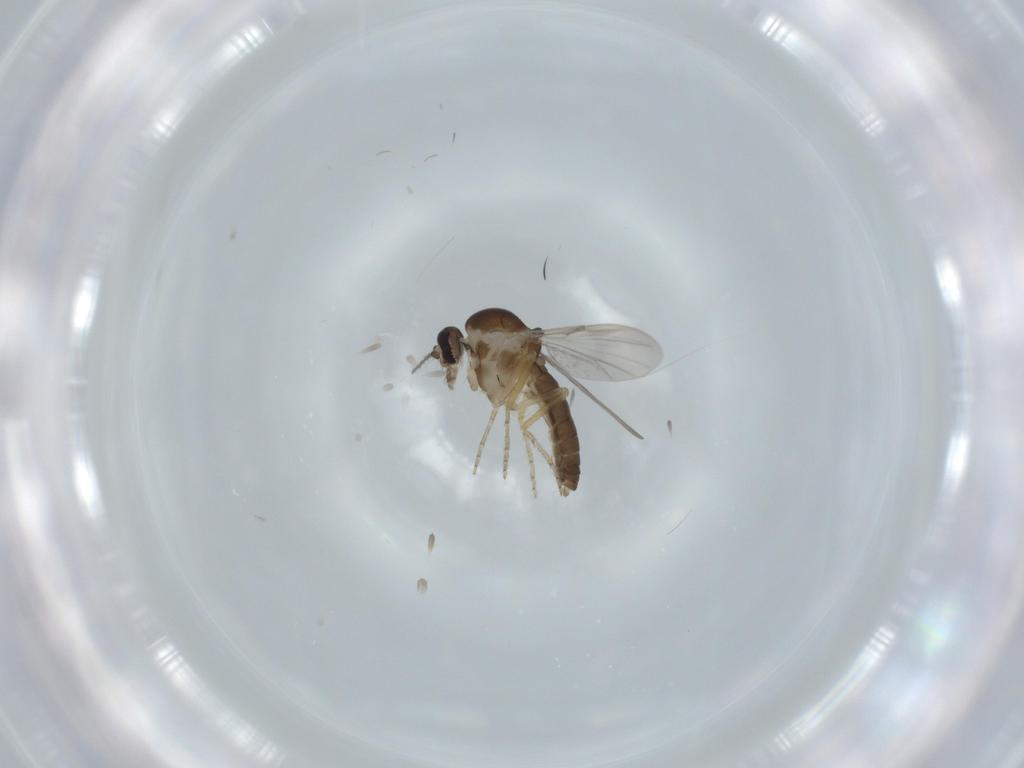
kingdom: Animalia
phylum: Arthropoda
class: Insecta
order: Diptera
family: Ceratopogonidae
